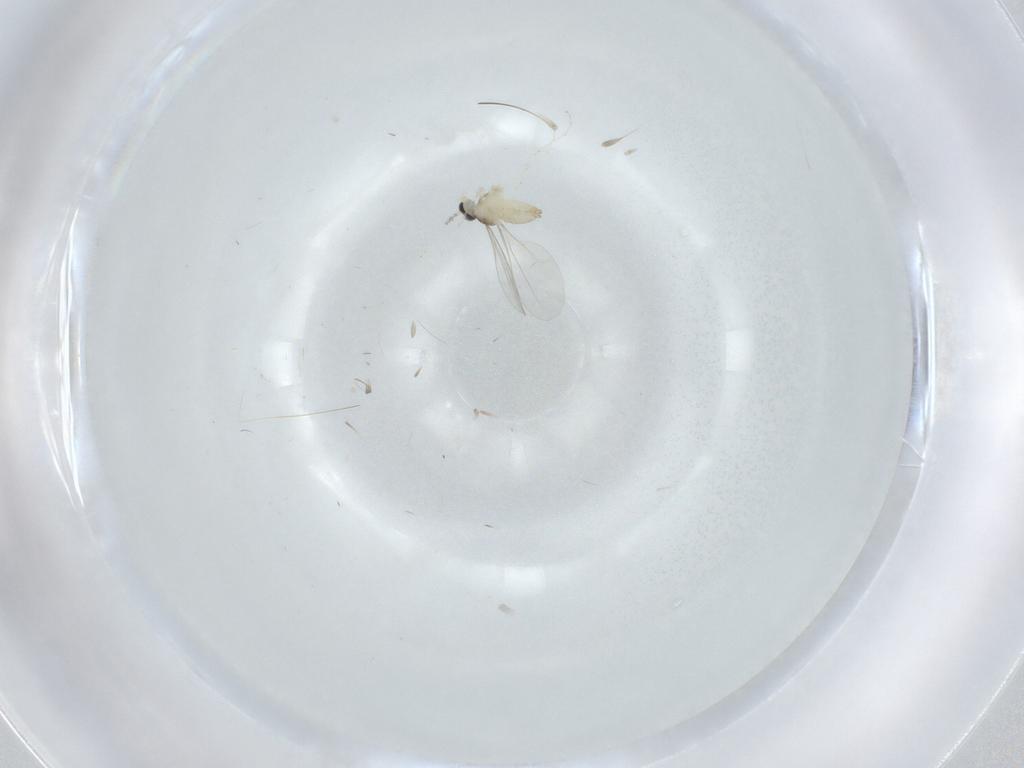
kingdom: Animalia
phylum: Arthropoda
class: Insecta
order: Diptera
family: Cecidomyiidae
